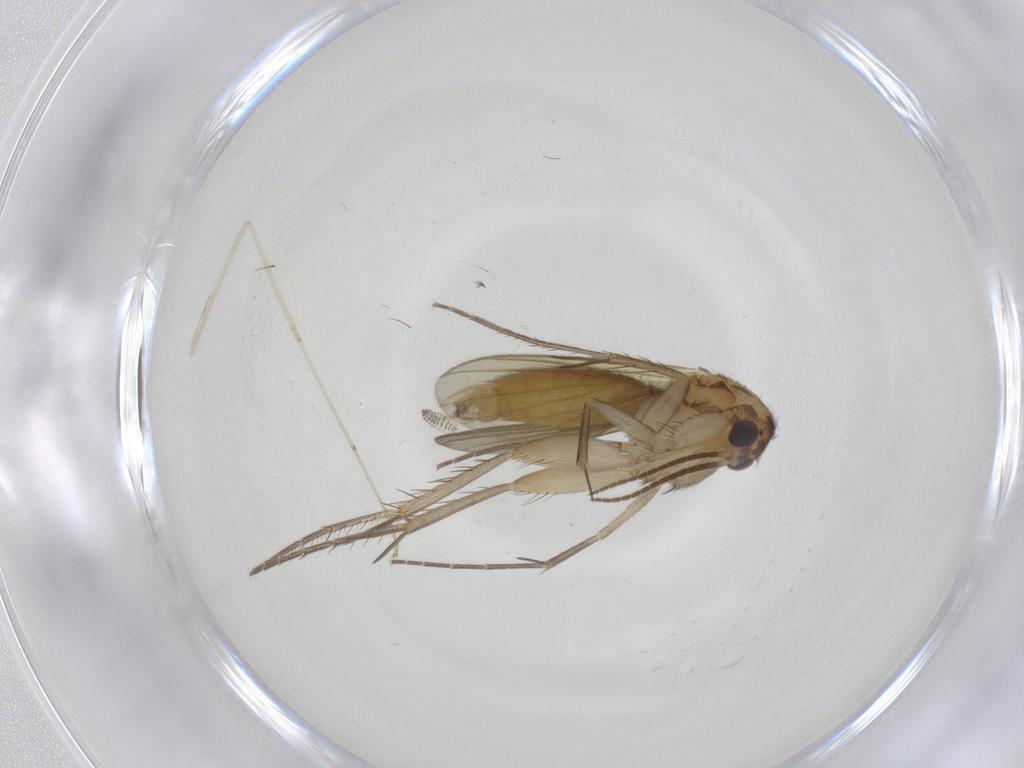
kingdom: Animalia
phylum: Arthropoda
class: Insecta
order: Diptera
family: Mycetophilidae
